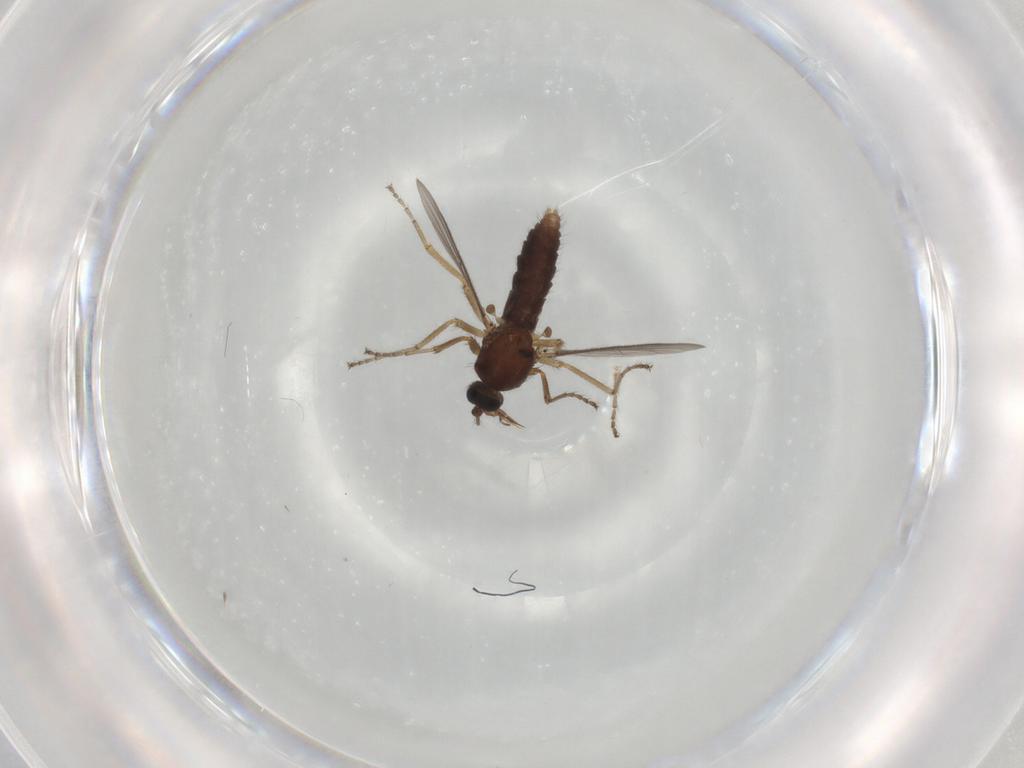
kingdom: Animalia
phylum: Arthropoda
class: Insecta
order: Diptera
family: Ceratopogonidae
